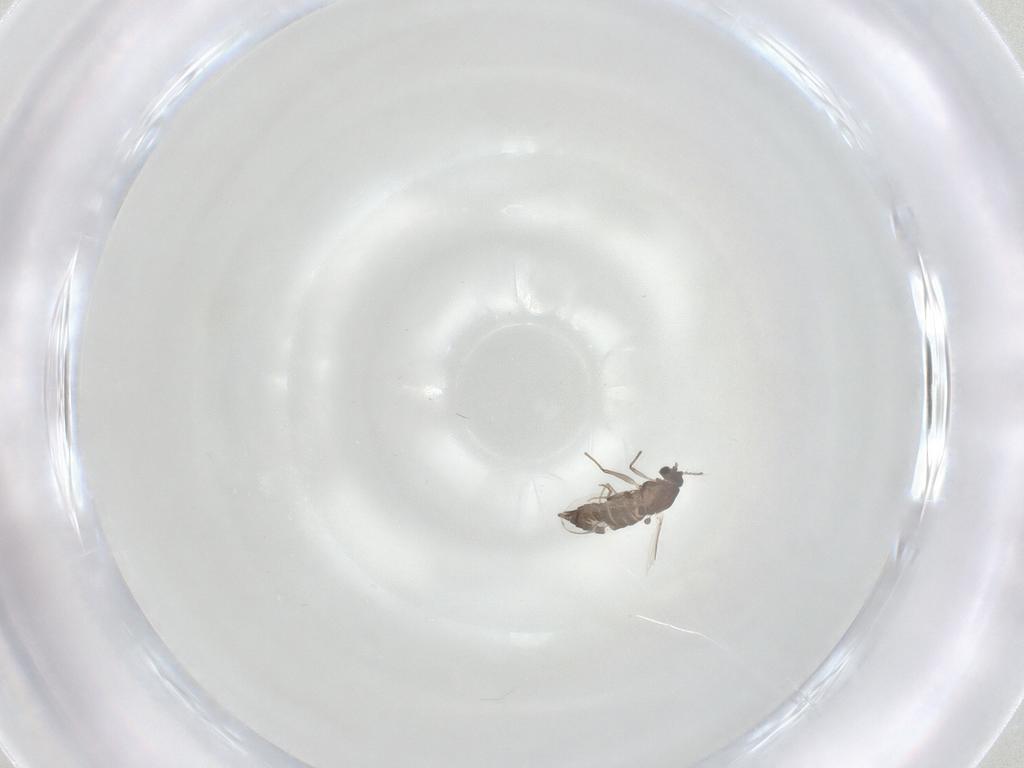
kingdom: Animalia
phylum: Arthropoda
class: Insecta
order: Diptera
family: Chironomidae
